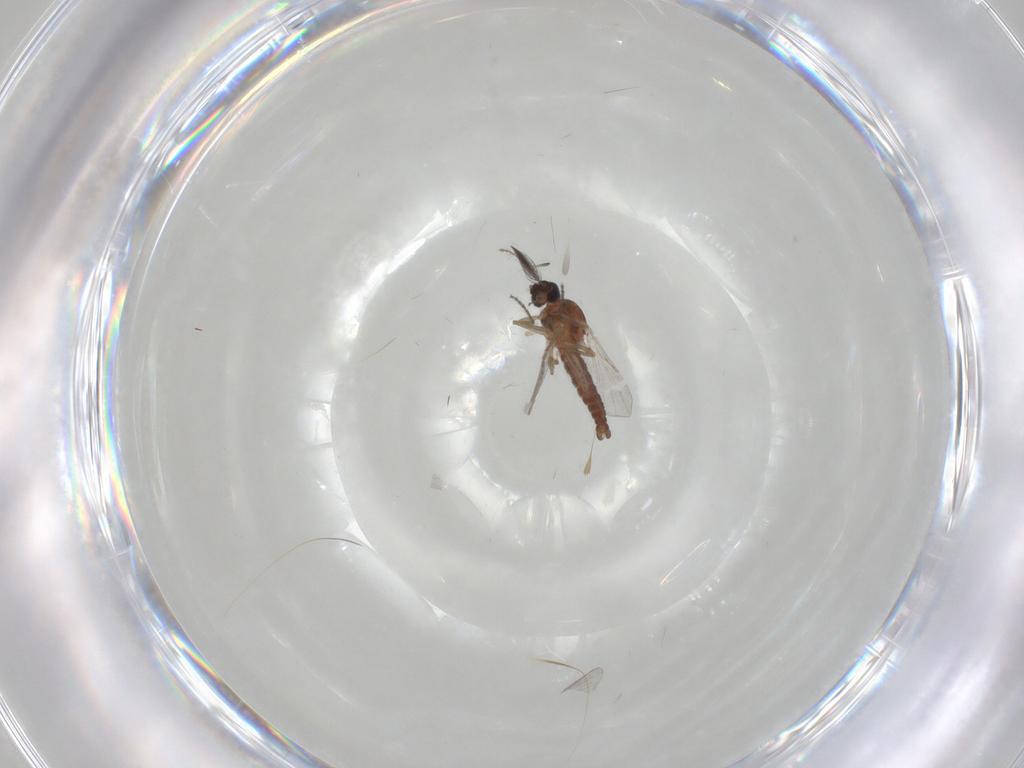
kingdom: Animalia
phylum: Arthropoda
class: Insecta
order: Diptera
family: Ceratopogonidae
